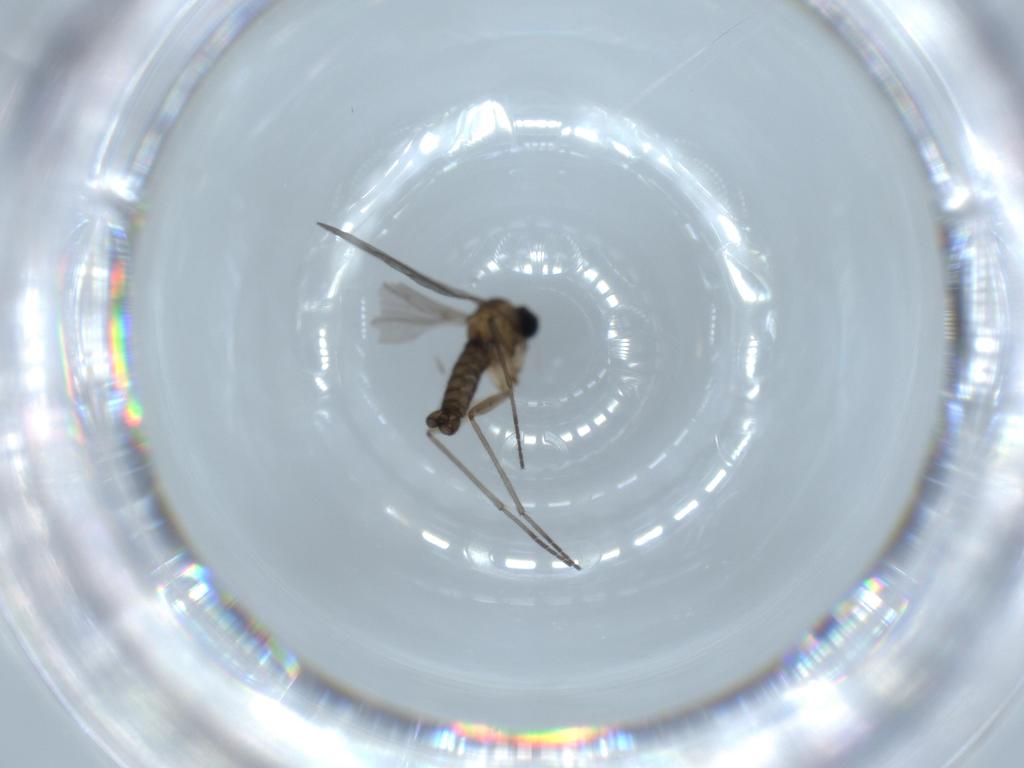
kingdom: Animalia
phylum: Arthropoda
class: Insecta
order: Diptera
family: Sciaridae
